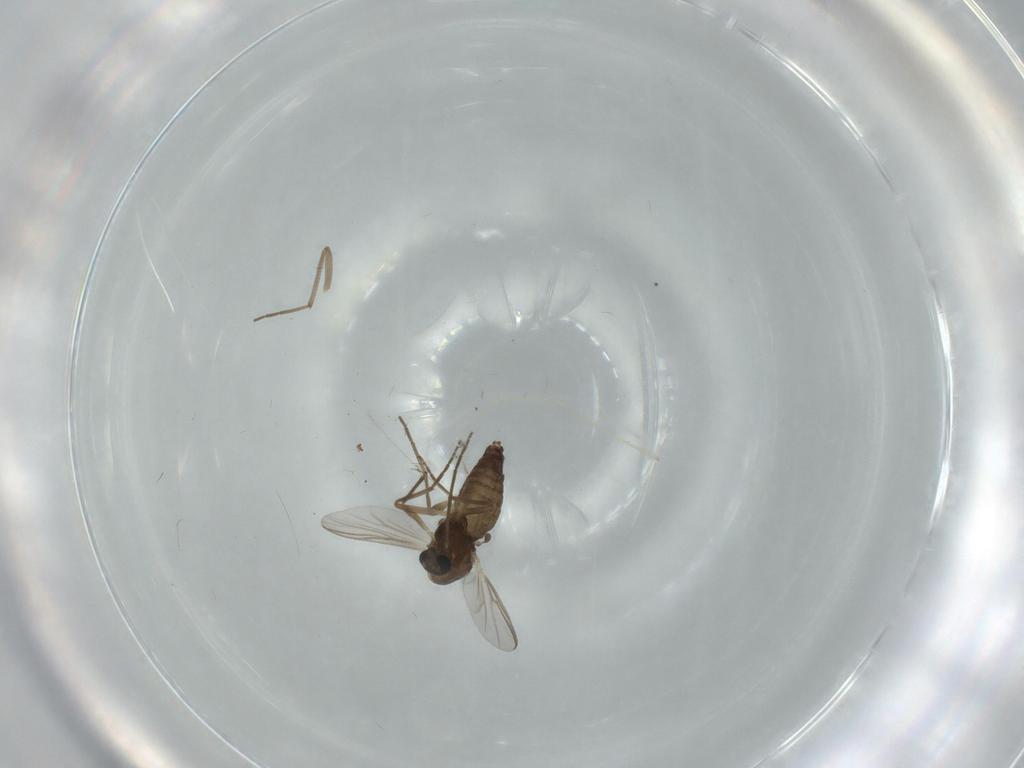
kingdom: Animalia
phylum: Arthropoda
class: Insecta
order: Diptera
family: Chironomidae
